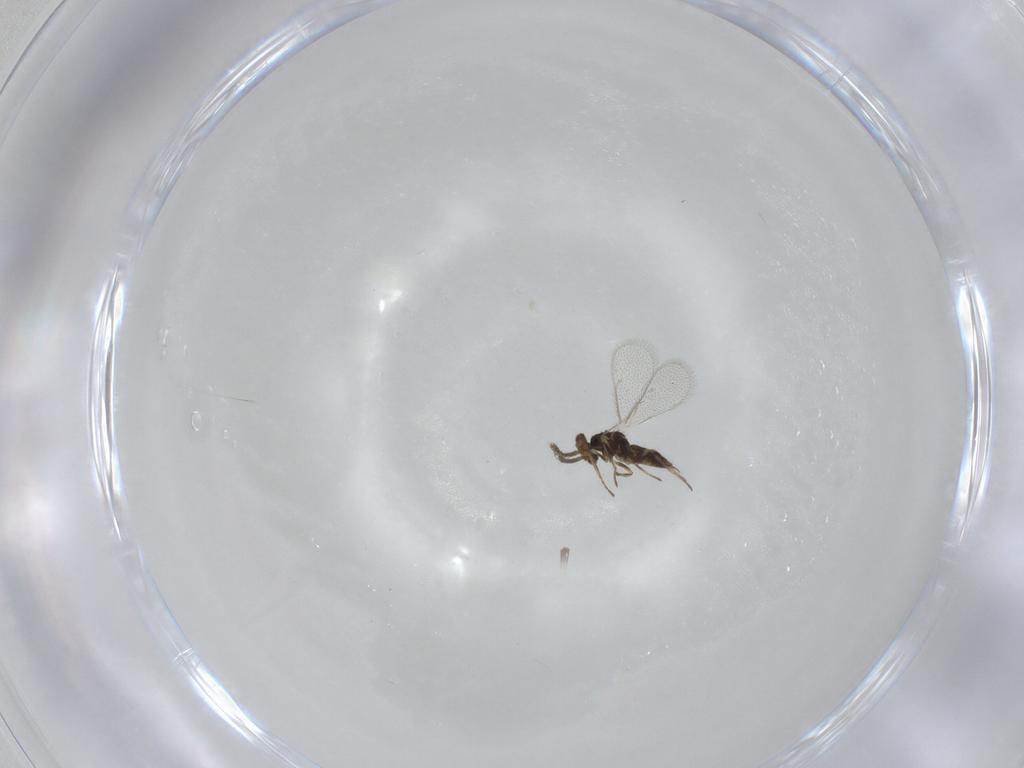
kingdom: Animalia
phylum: Arthropoda
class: Insecta
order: Hymenoptera
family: Eulophidae
